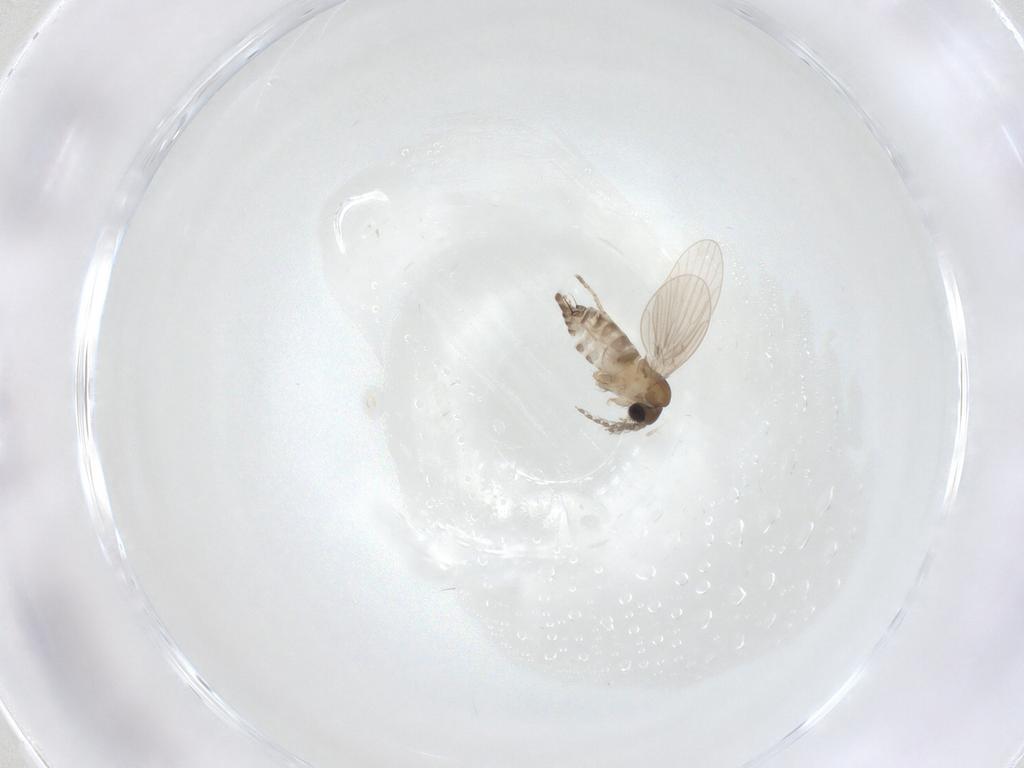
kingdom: Animalia
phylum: Arthropoda
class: Insecta
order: Diptera
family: Psychodidae
